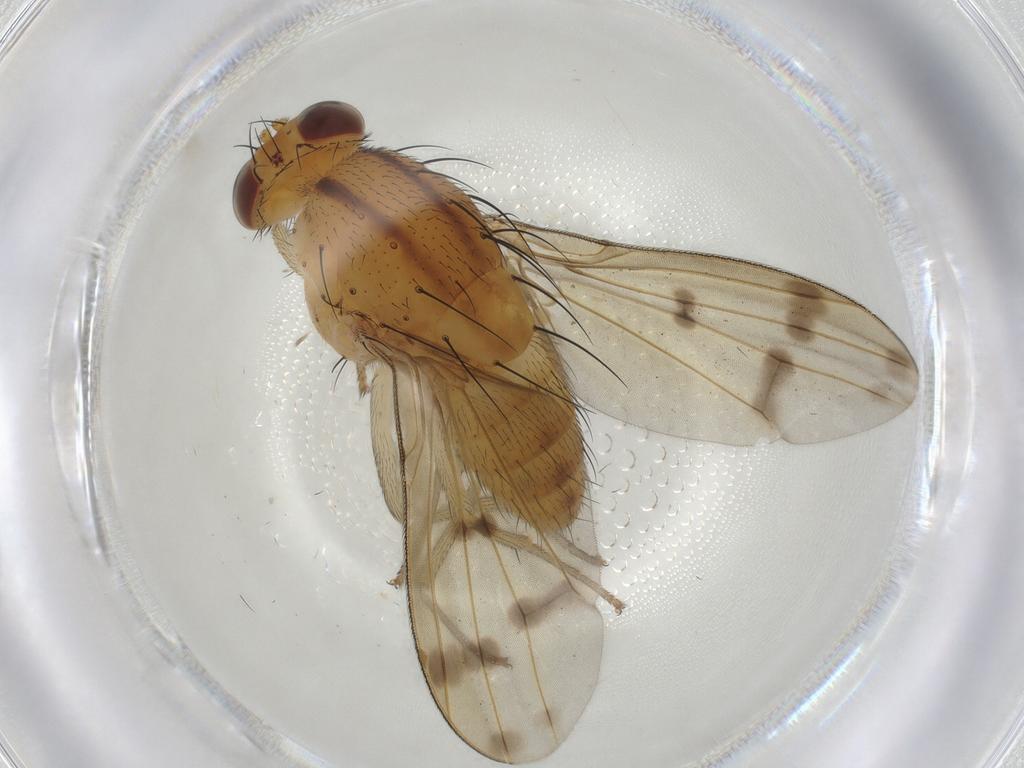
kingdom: Animalia
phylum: Arthropoda
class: Insecta
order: Diptera
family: Chironomidae
